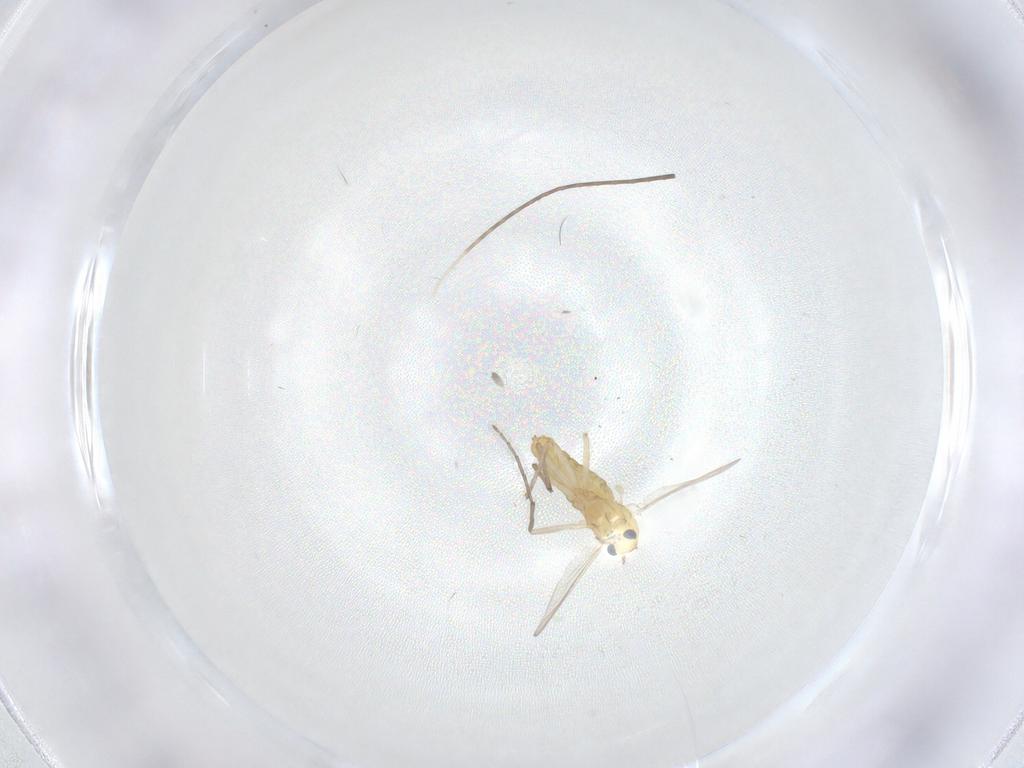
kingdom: Animalia
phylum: Arthropoda
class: Insecta
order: Diptera
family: Chironomidae
